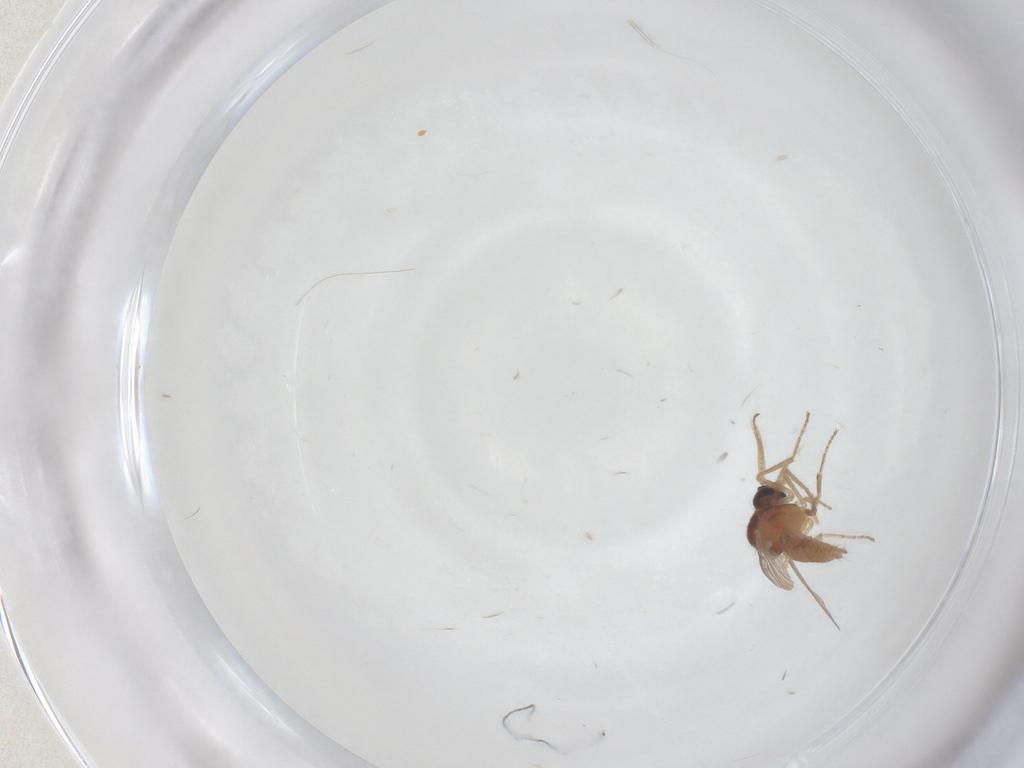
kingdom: Animalia
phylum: Arthropoda
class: Insecta
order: Diptera
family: Ceratopogonidae
